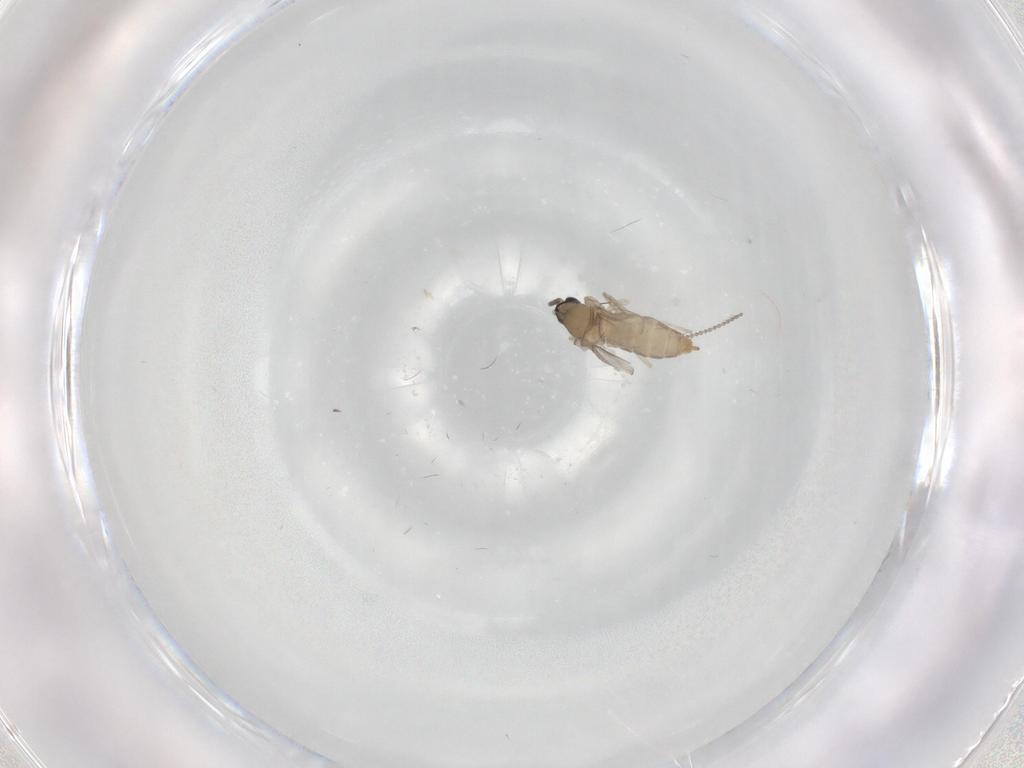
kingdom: Animalia
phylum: Arthropoda
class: Insecta
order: Diptera
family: Cecidomyiidae
